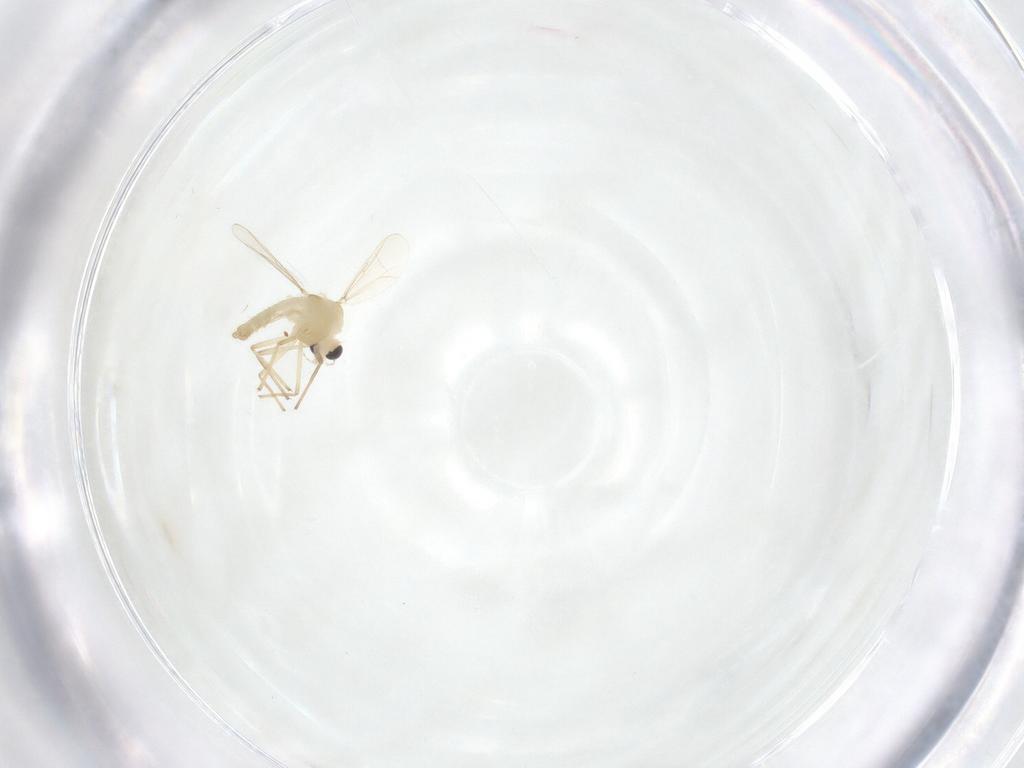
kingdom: Animalia
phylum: Arthropoda
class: Insecta
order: Diptera
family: Chironomidae
